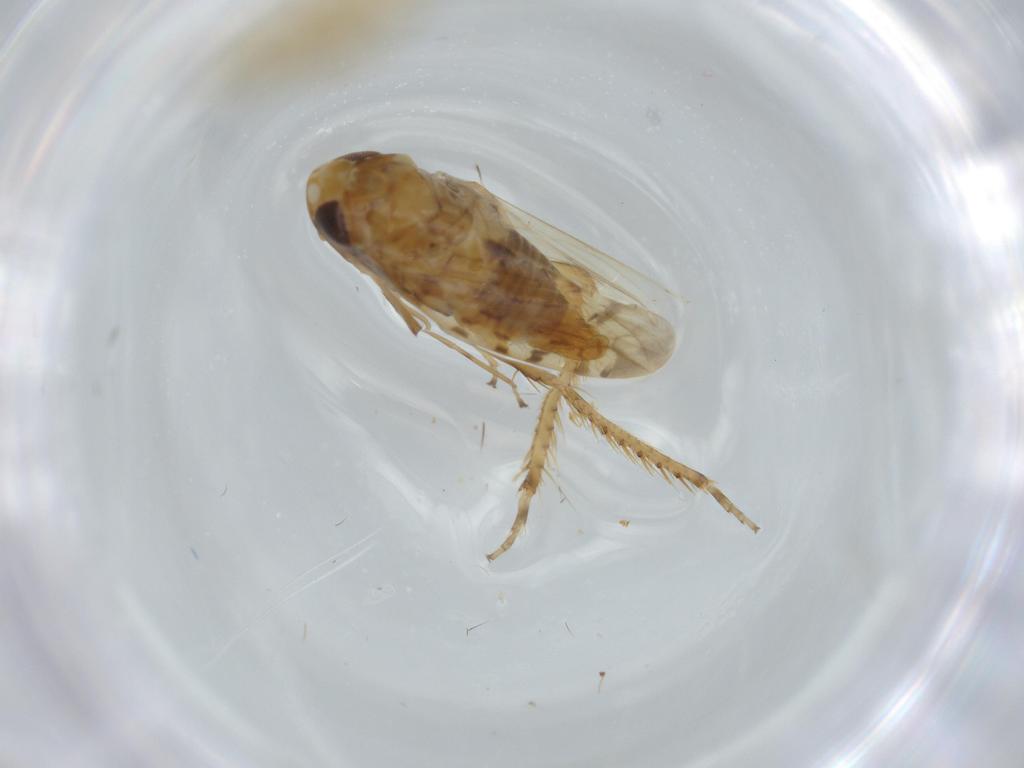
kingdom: Animalia
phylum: Arthropoda
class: Insecta
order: Hemiptera
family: Cicadellidae
